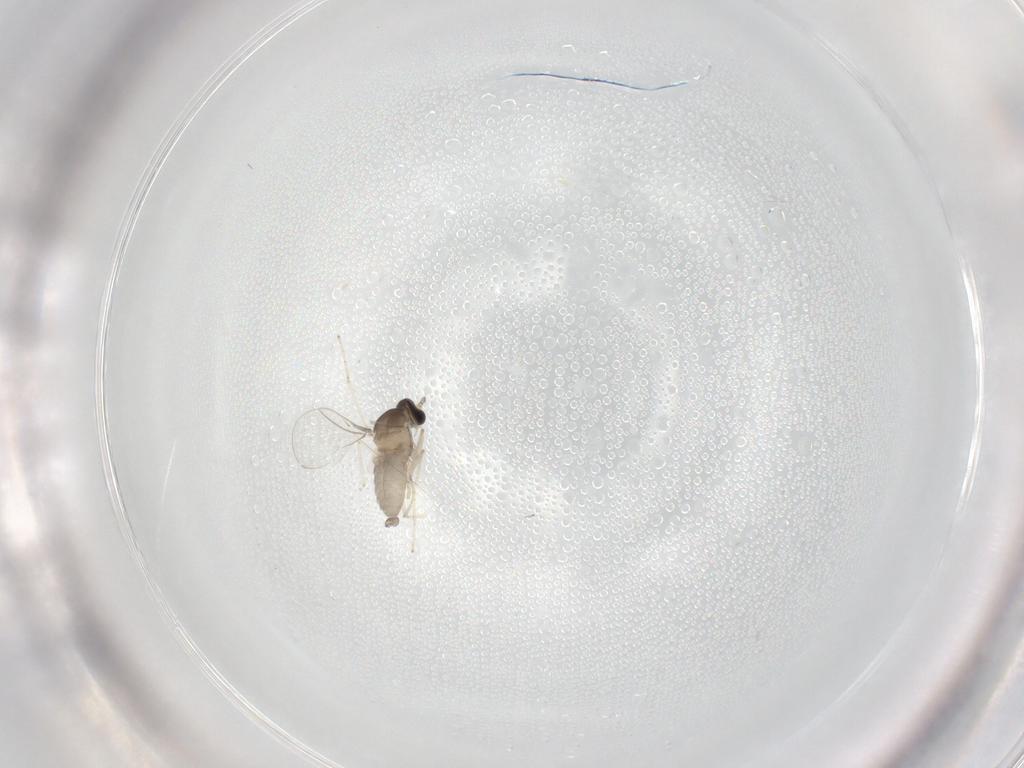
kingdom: Animalia
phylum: Arthropoda
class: Insecta
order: Diptera
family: Cecidomyiidae
